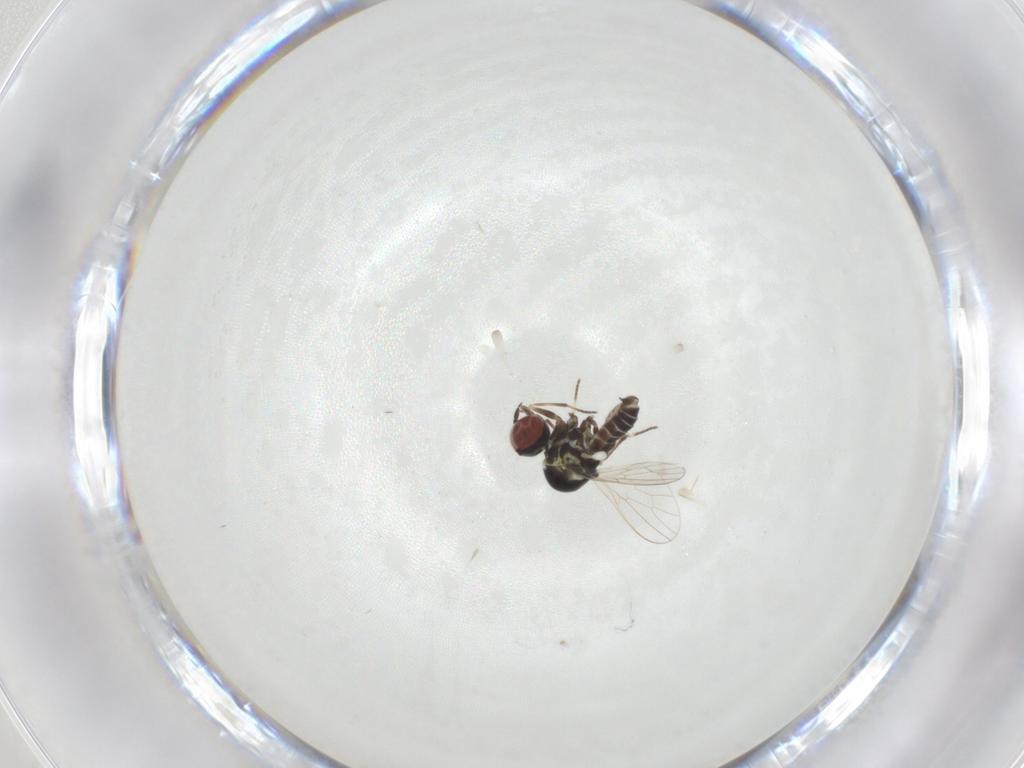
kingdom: Animalia
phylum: Arthropoda
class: Insecta
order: Diptera
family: Bombyliidae
